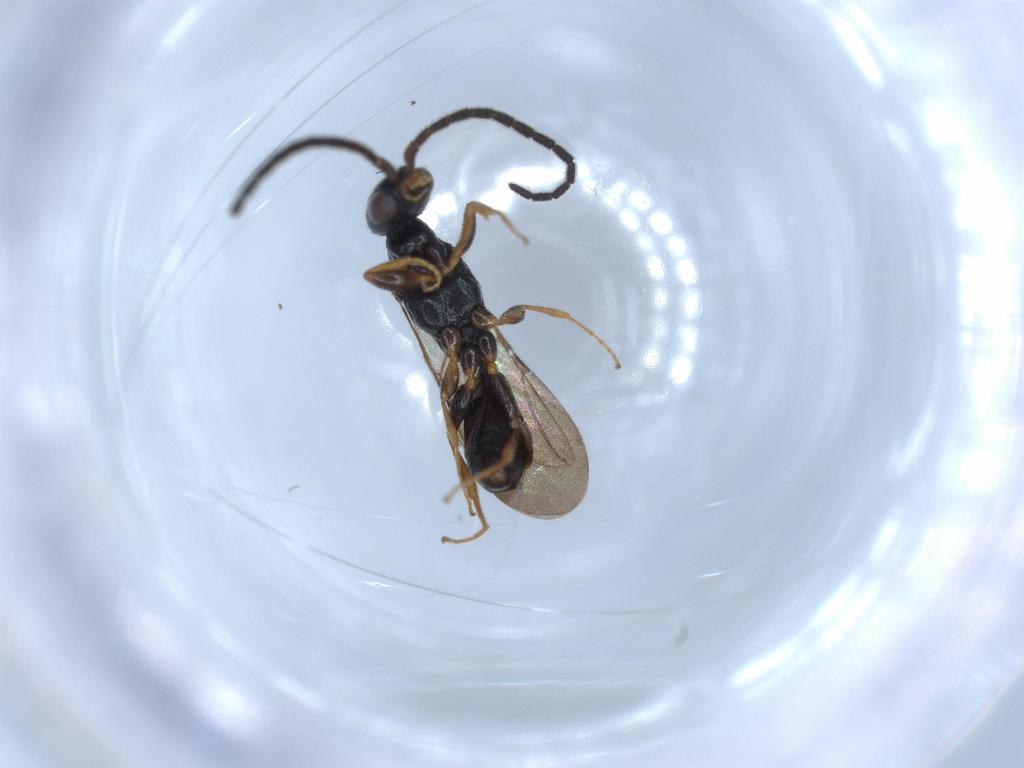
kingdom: Animalia
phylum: Arthropoda
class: Insecta
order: Hymenoptera
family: Bethylidae
